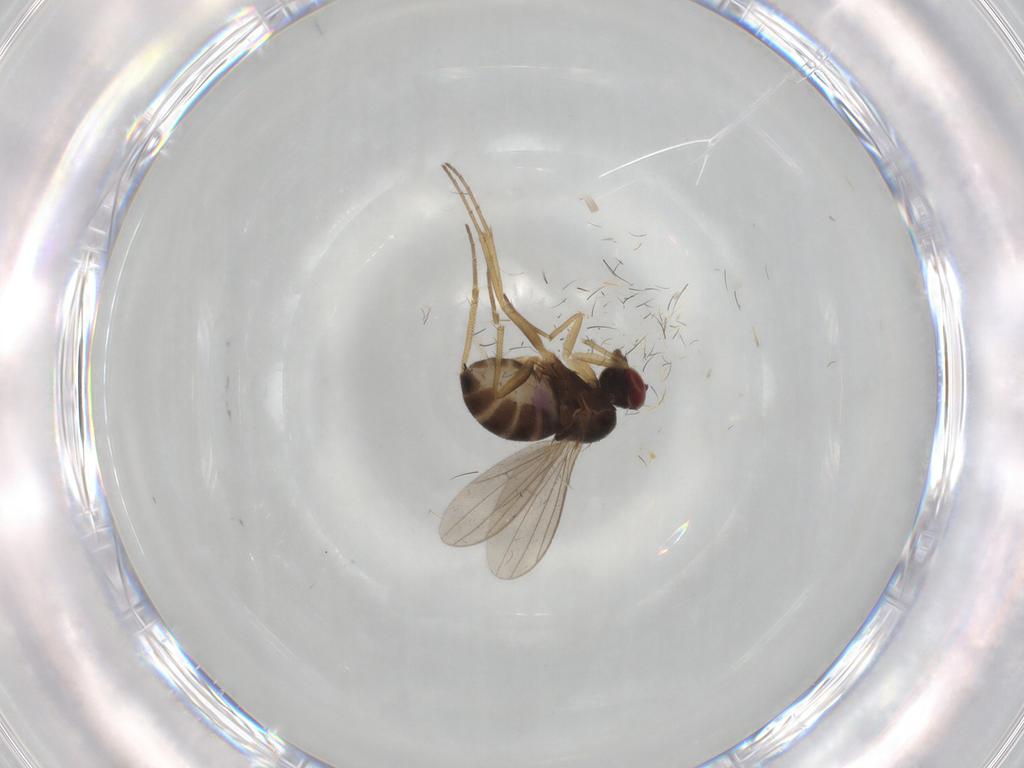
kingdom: Animalia
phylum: Arthropoda
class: Insecta
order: Diptera
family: Dolichopodidae
